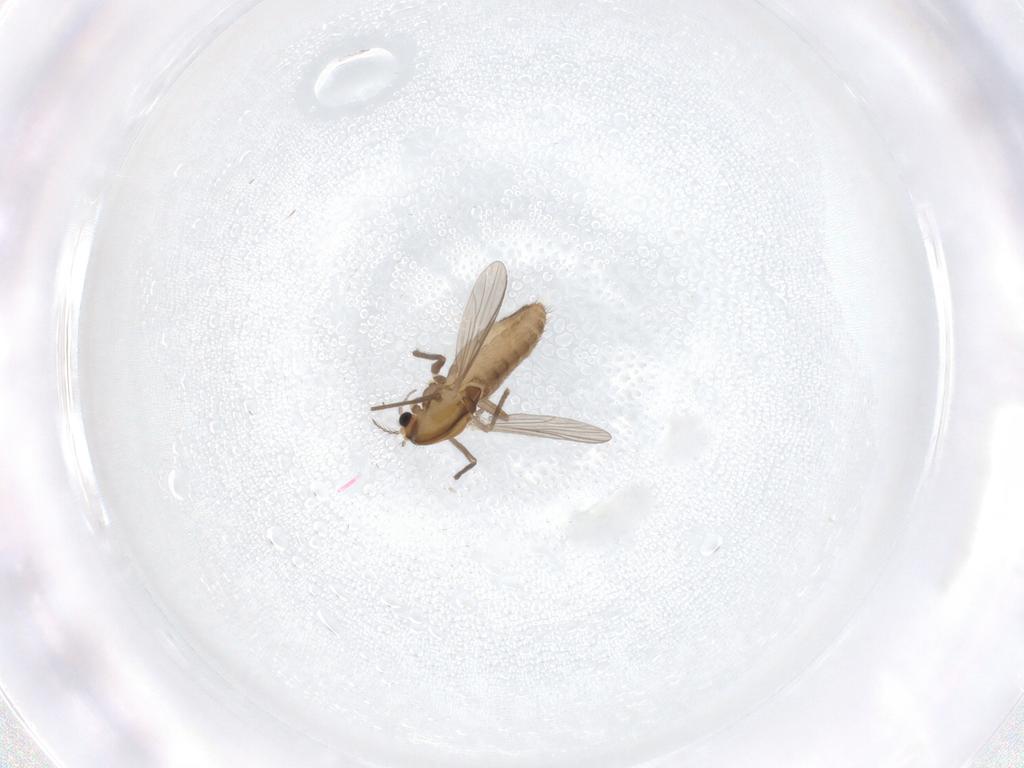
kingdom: Animalia
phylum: Arthropoda
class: Insecta
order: Diptera
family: Chironomidae
